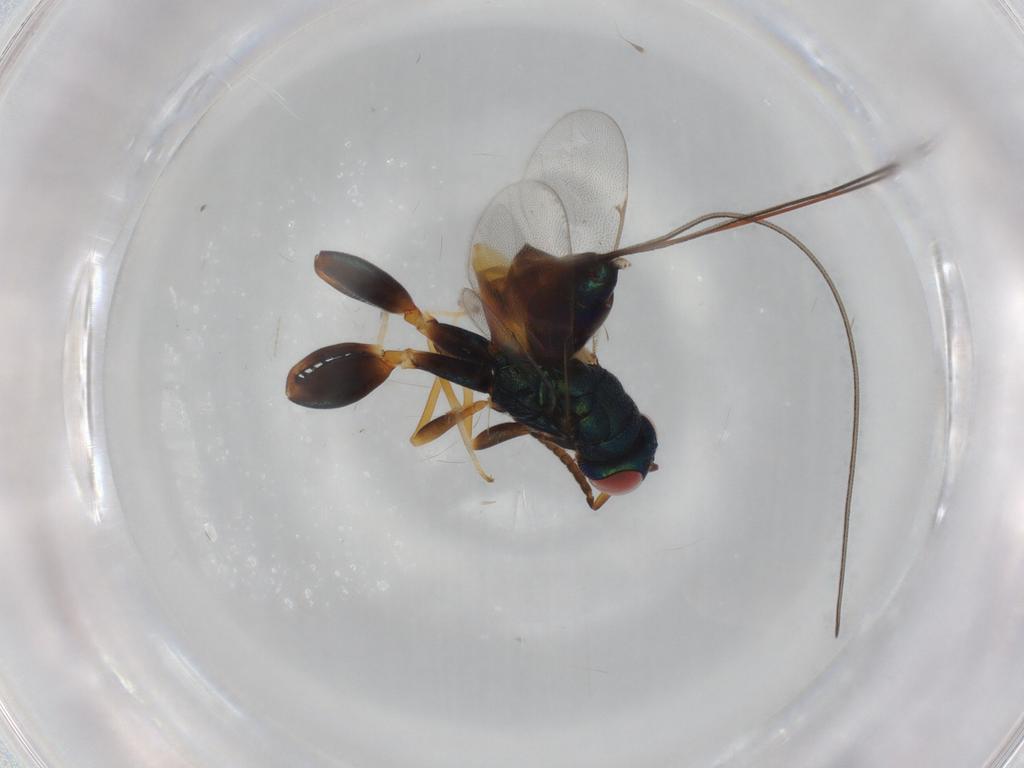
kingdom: Animalia
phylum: Arthropoda
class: Insecta
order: Hymenoptera
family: Torymidae
